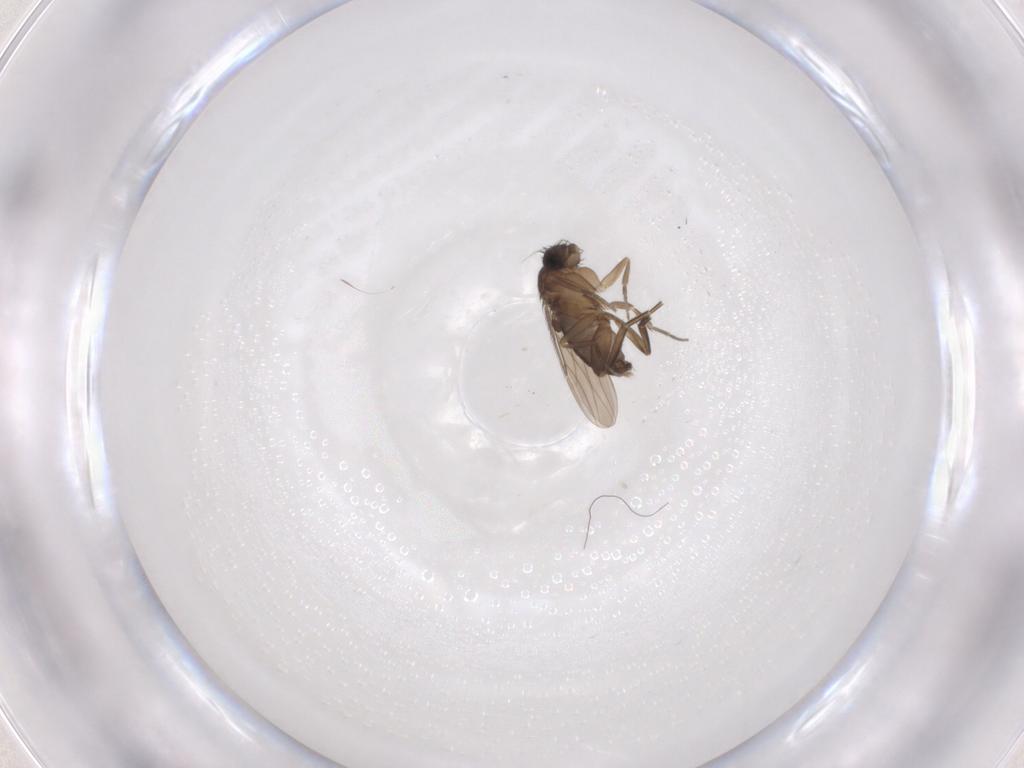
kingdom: Animalia
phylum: Arthropoda
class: Insecta
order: Diptera
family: Phoridae
